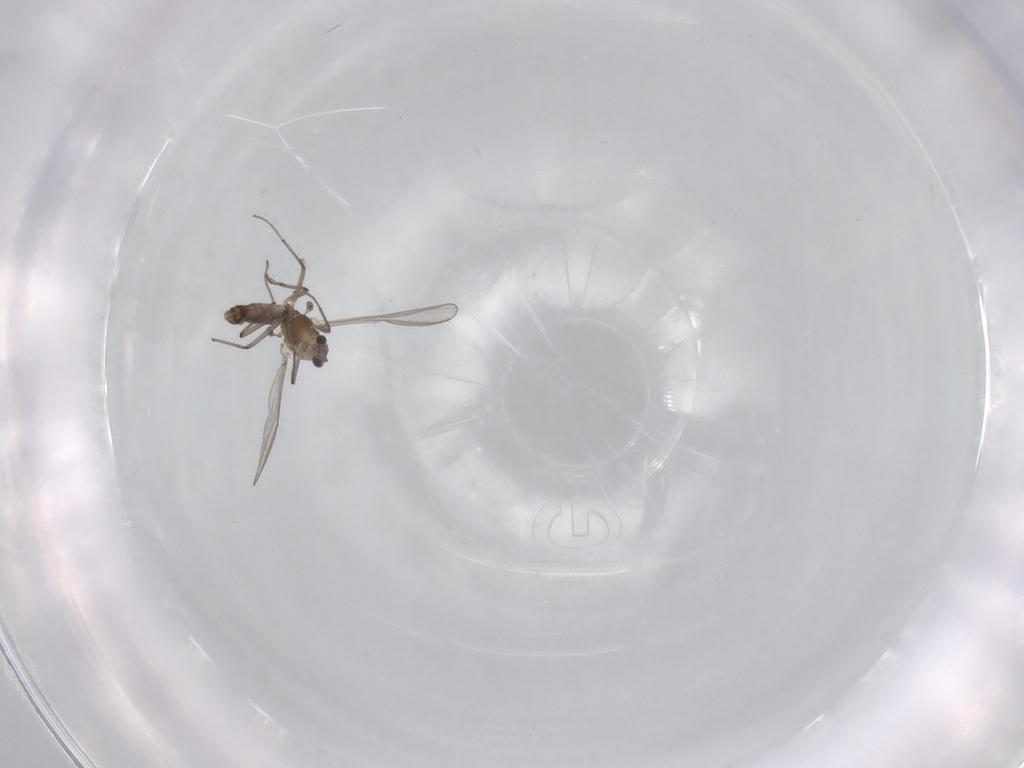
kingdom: Animalia
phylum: Arthropoda
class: Insecta
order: Diptera
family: Chironomidae
